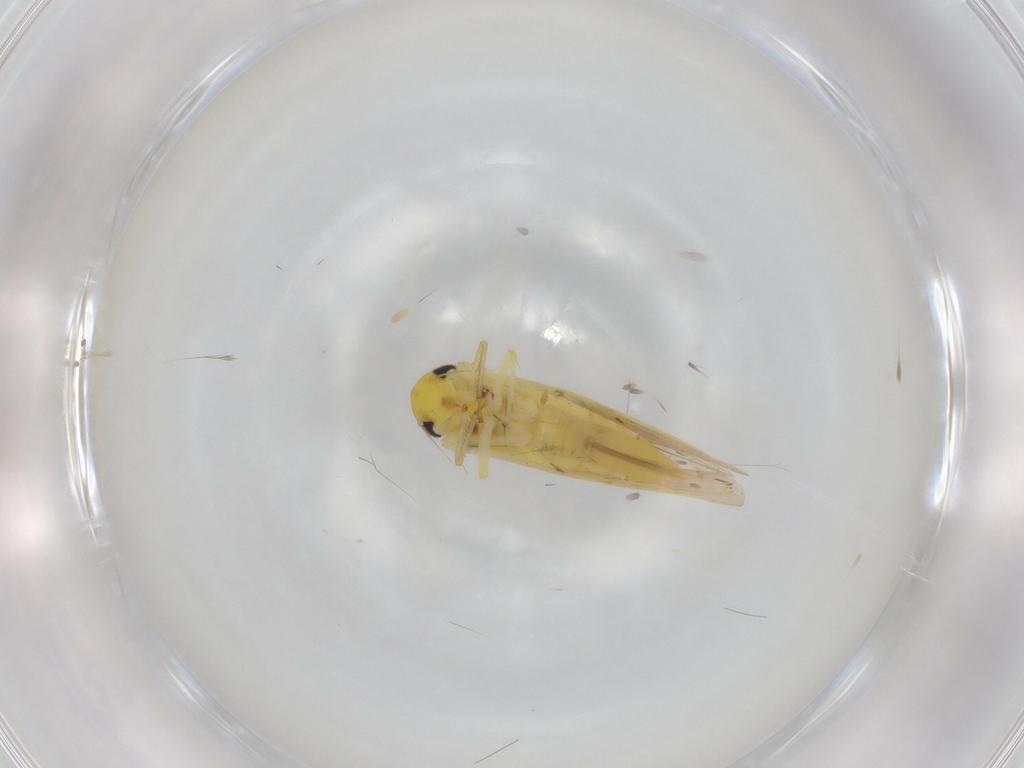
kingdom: Animalia
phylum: Arthropoda
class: Insecta
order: Hemiptera
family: Cicadellidae
